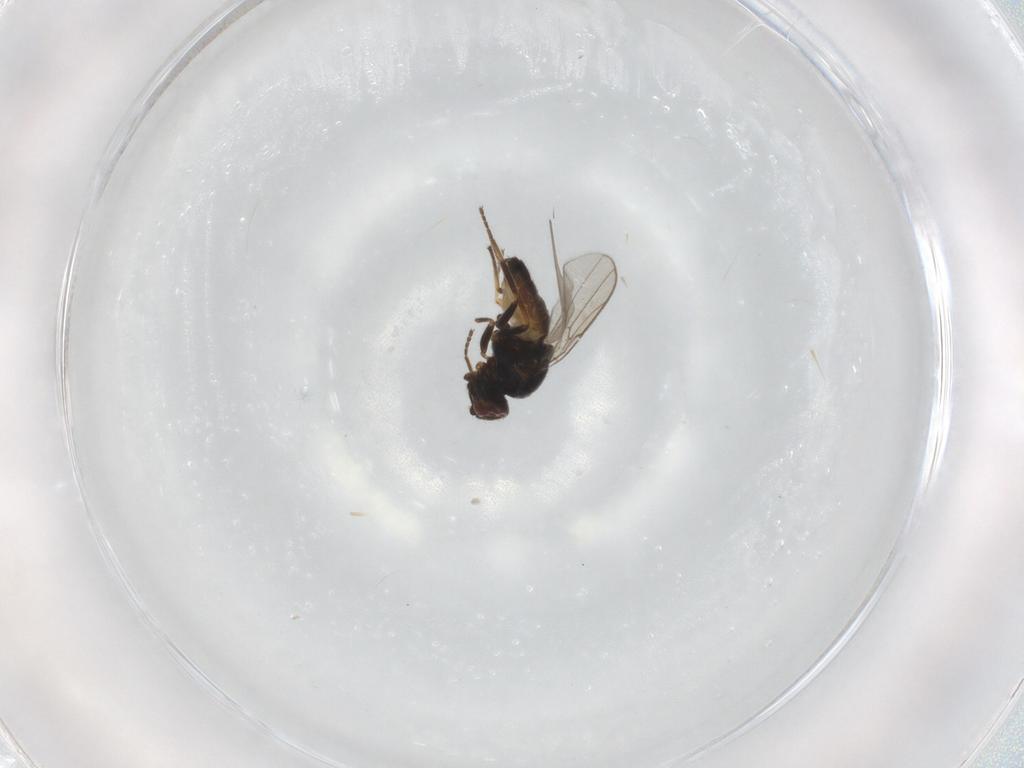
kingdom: Animalia
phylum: Arthropoda
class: Insecta
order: Diptera
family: Chloropidae
